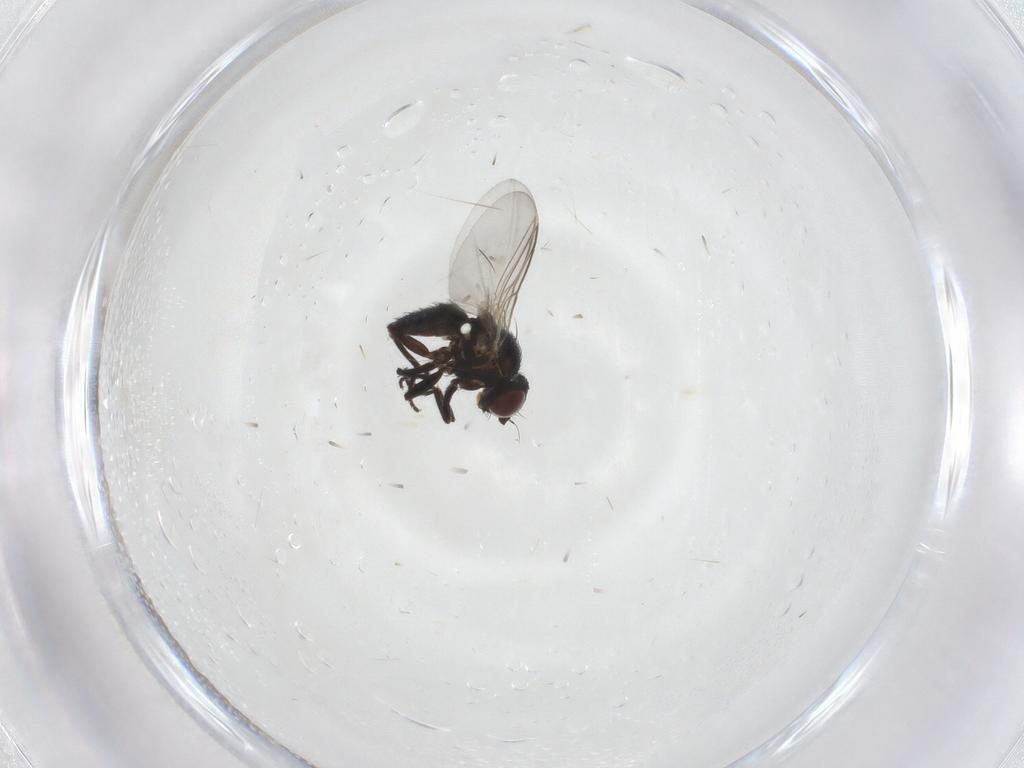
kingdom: Animalia
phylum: Arthropoda
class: Insecta
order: Diptera
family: Agromyzidae
